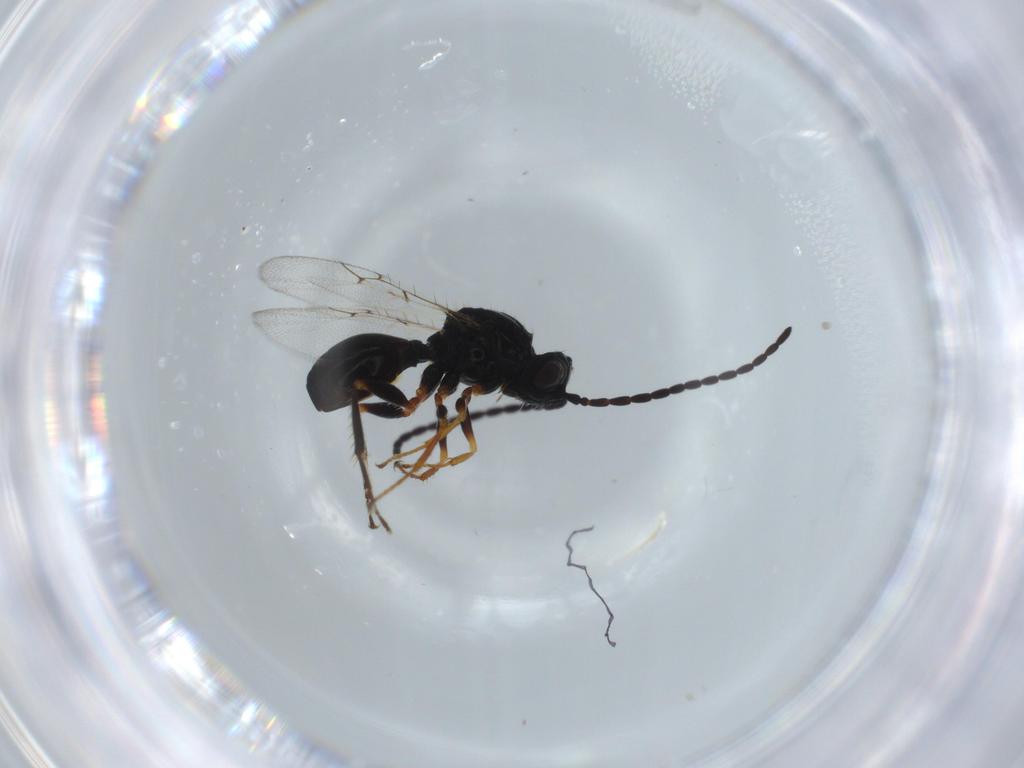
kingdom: Animalia
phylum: Arthropoda
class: Insecta
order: Hymenoptera
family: Figitidae
